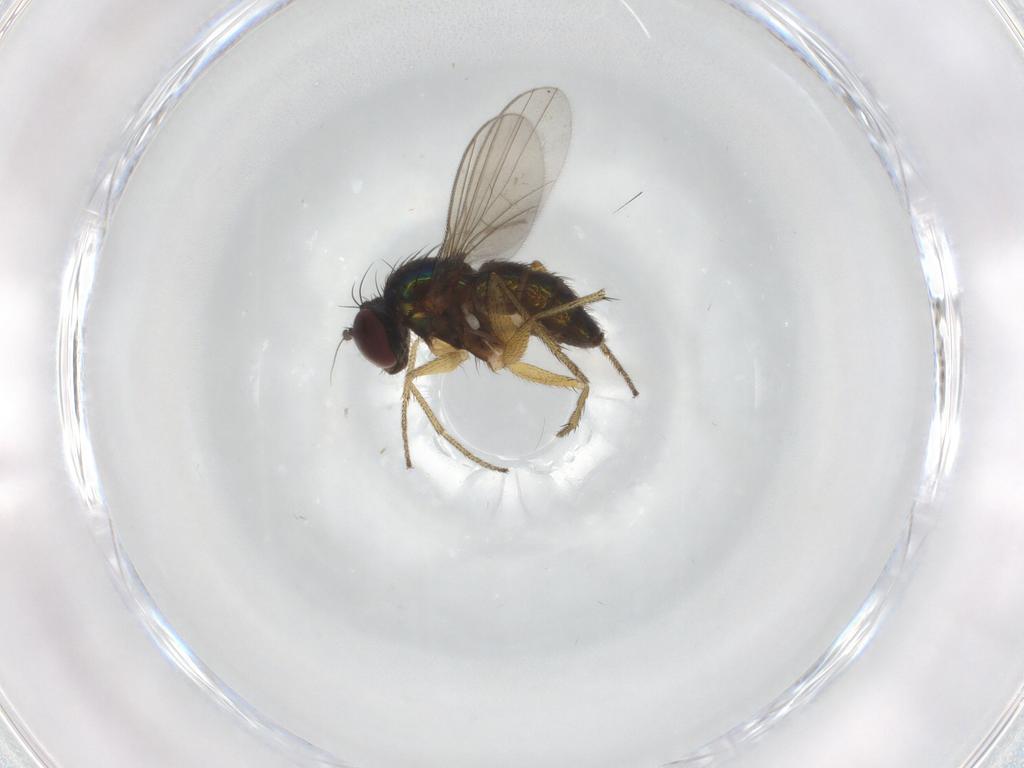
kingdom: Animalia
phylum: Arthropoda
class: Insecta
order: Diptera
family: Dolichopodidae
